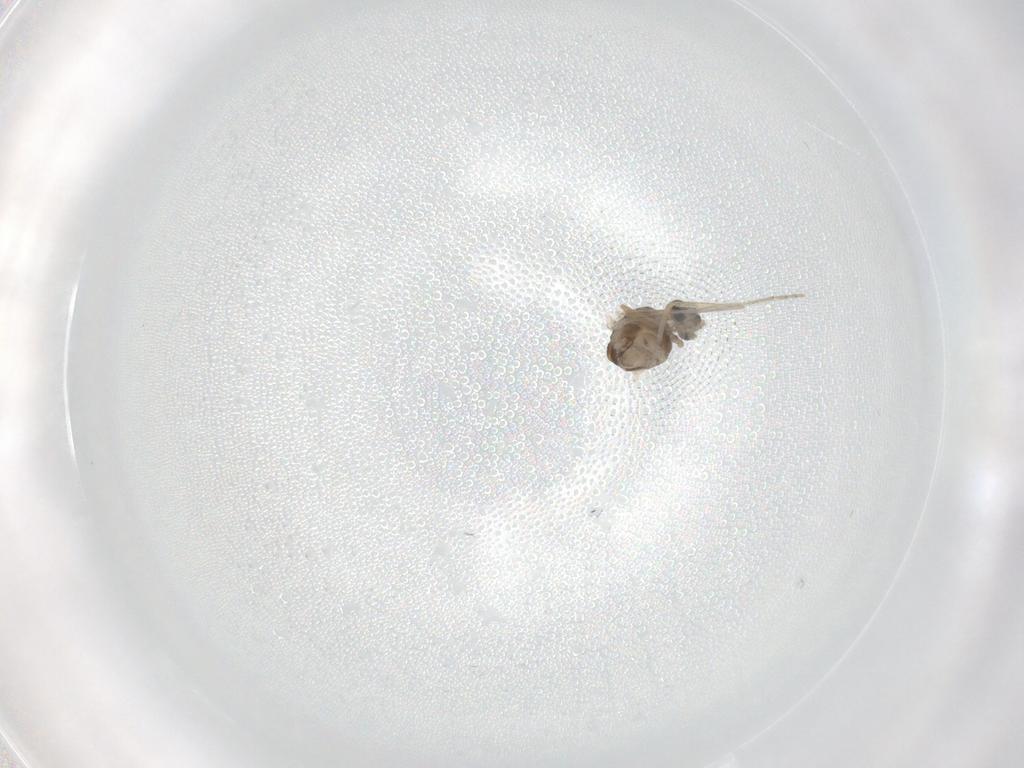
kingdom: Animalia
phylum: Arthropoda
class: Insecta
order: Diptera
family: Ceratopogonidae
